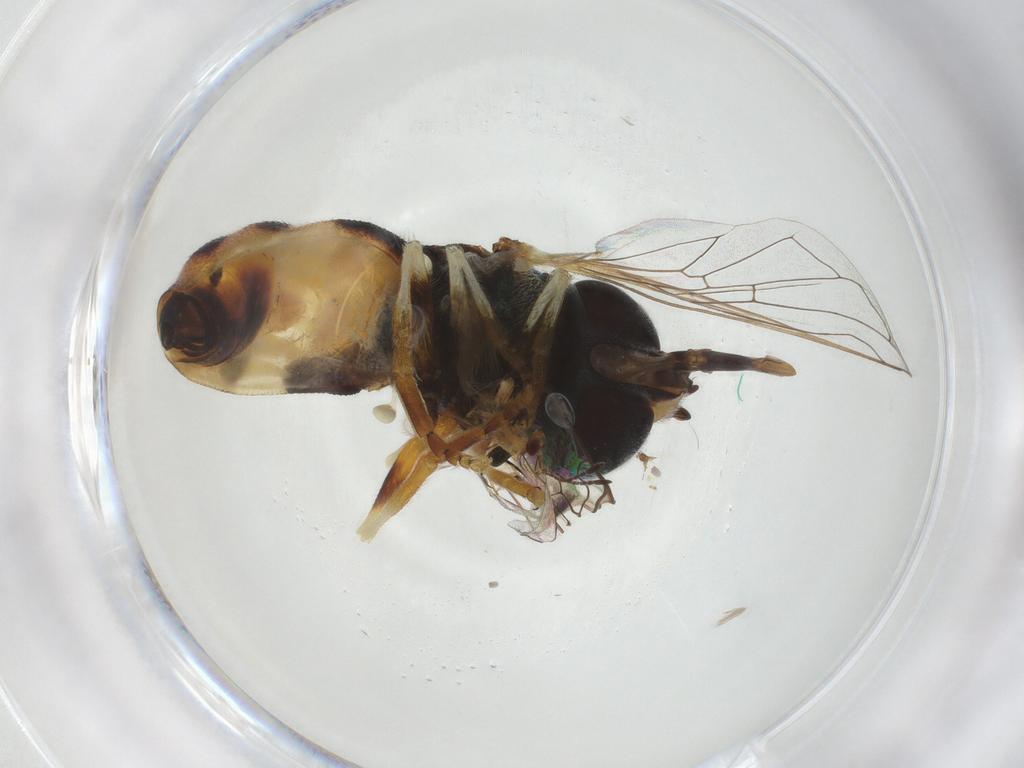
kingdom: Animalia
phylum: Arthropoda
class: Insecta
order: Diptera
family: Syrphidae
